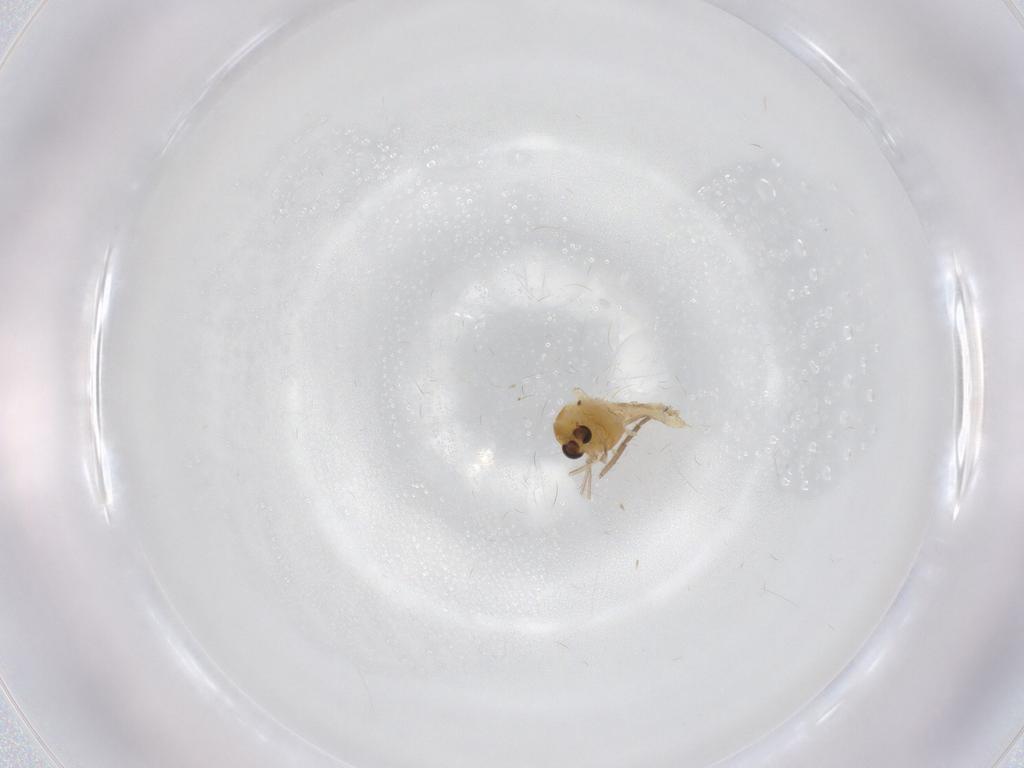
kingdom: Animalia
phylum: Arthropoda
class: Insecta
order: Diptera
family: Chironomidae
